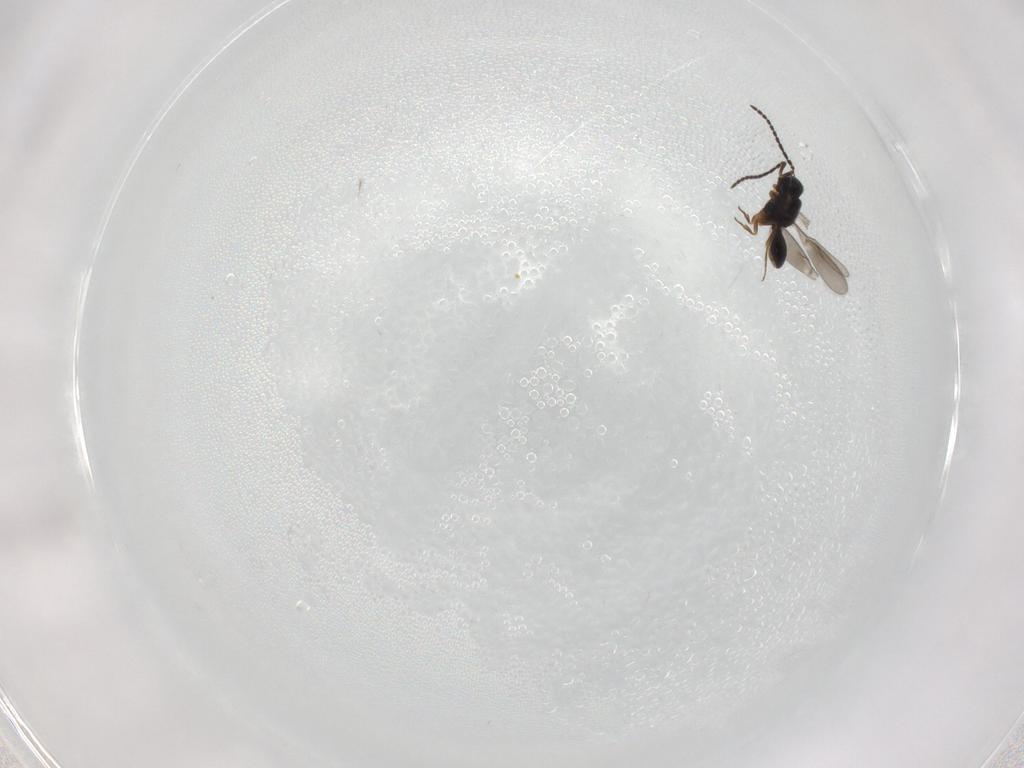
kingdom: Animalia
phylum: Arthropoda
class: Insecta
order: Hymenoptera
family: Scelionidae
